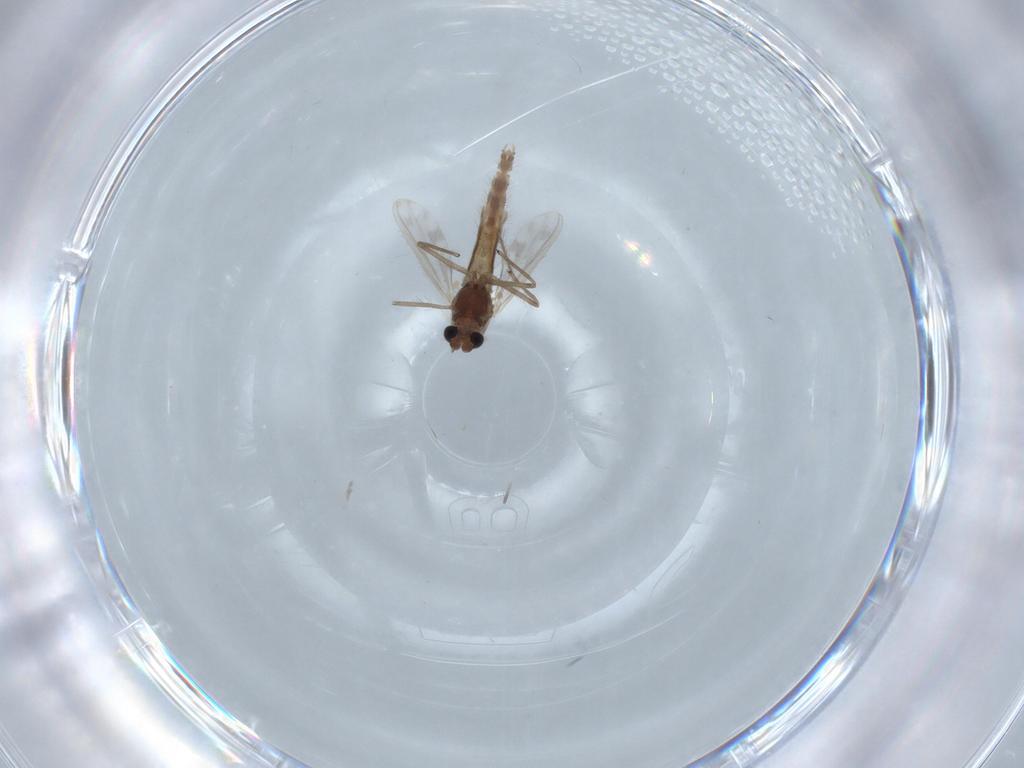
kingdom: Animalia
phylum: Arthropoda
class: Insecta
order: Diptera
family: Chironomidae
